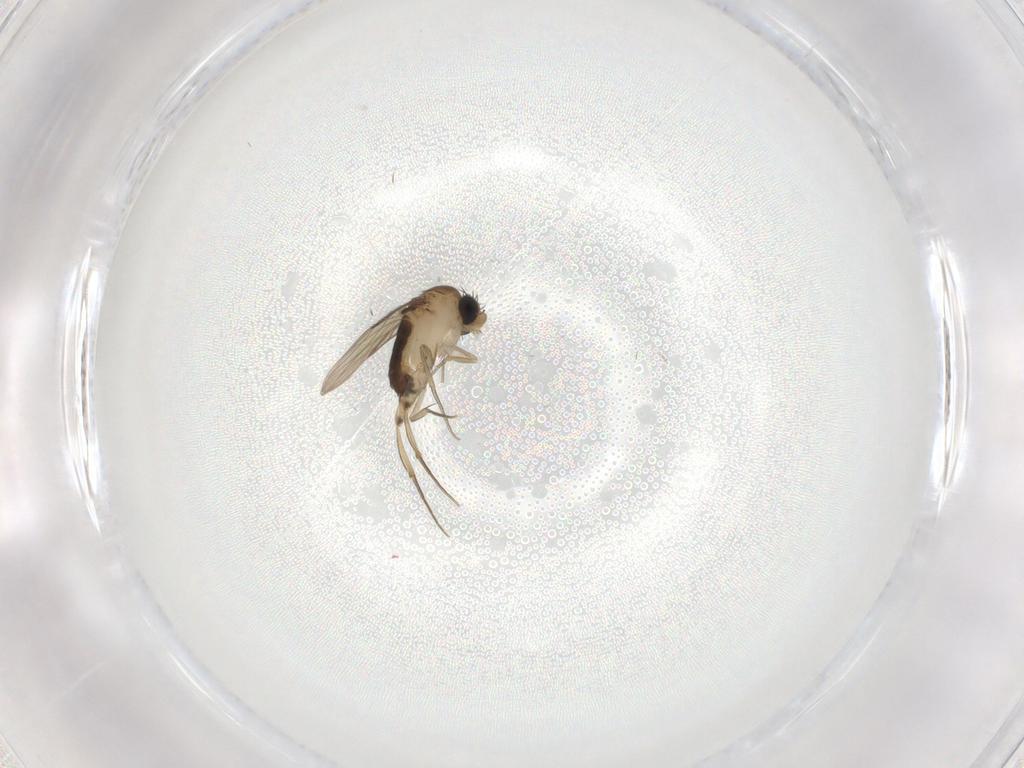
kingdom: Animalia
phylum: Arthropoda
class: Insecta
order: Diptera
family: Phoridae
